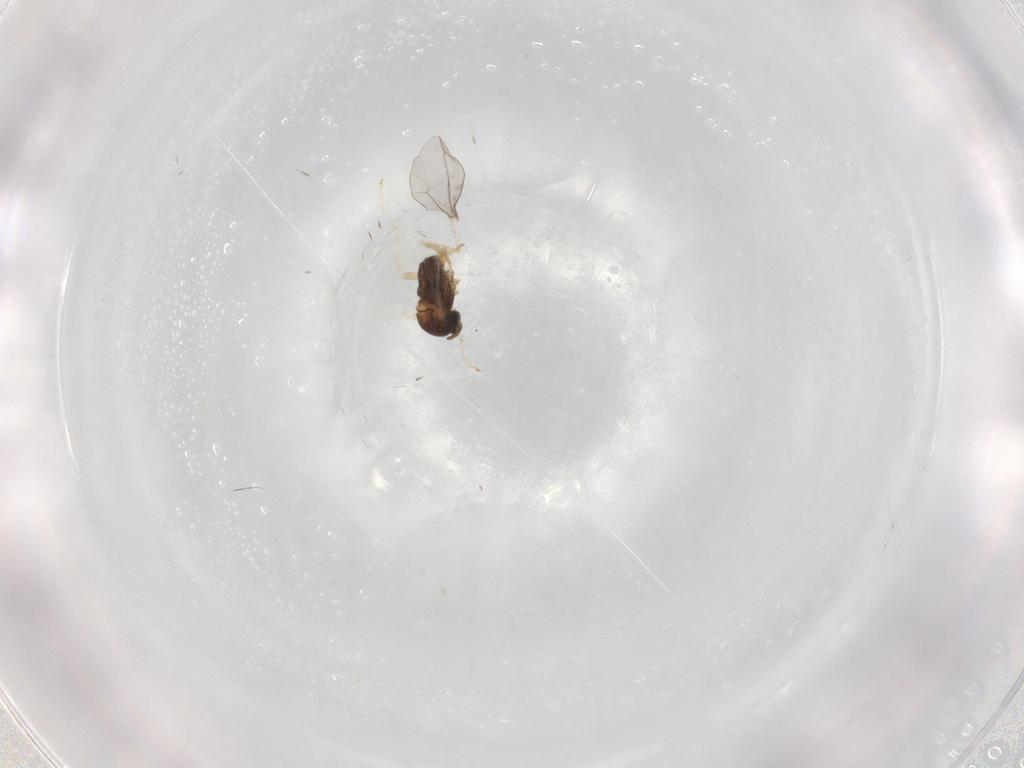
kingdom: Animalia
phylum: Arthropoda
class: Insecta
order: Diptera
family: Cecidomyiidae
